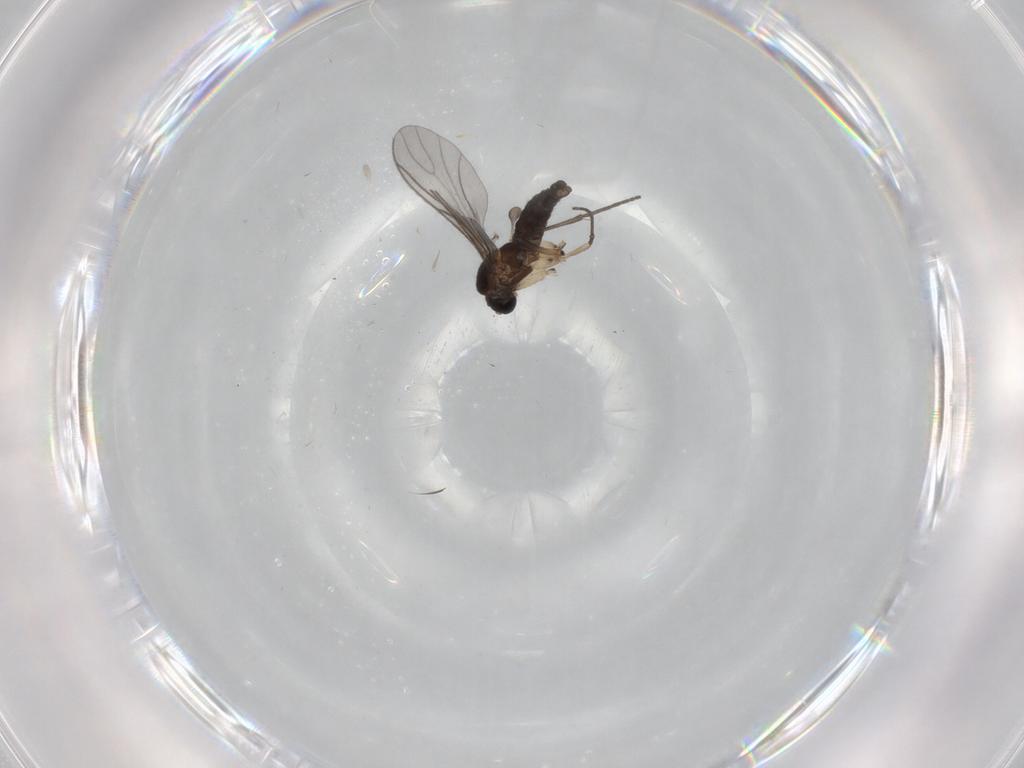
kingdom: Animalia
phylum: Arthropoda
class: Insecta
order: Diptera
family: Sciaridae
